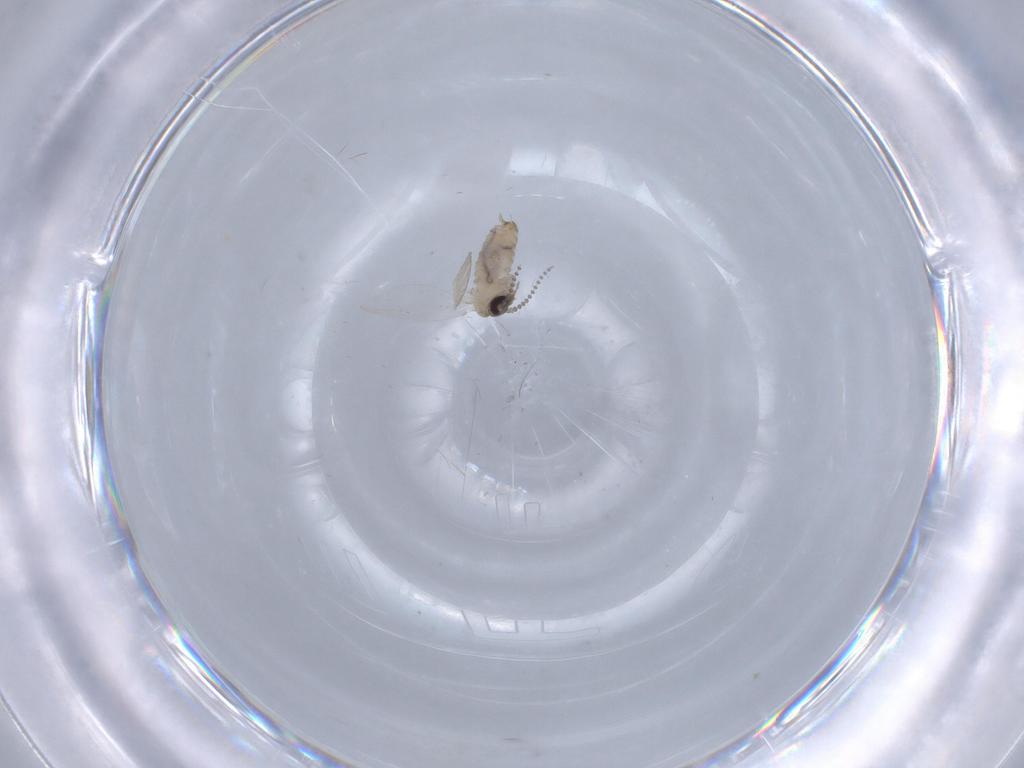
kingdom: Animalia
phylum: Arthropoda
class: Insecta
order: Diptera
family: Psychodidae
